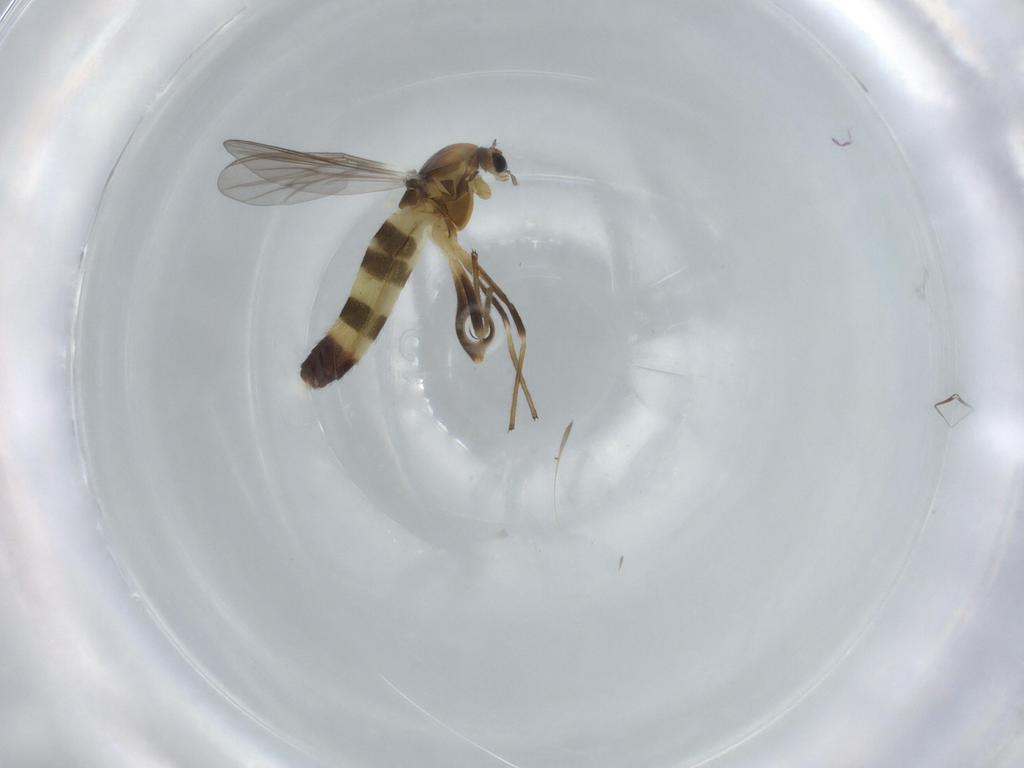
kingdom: Animalia
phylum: Arthropoda
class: Insecta
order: Diptera
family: Chironomidae
